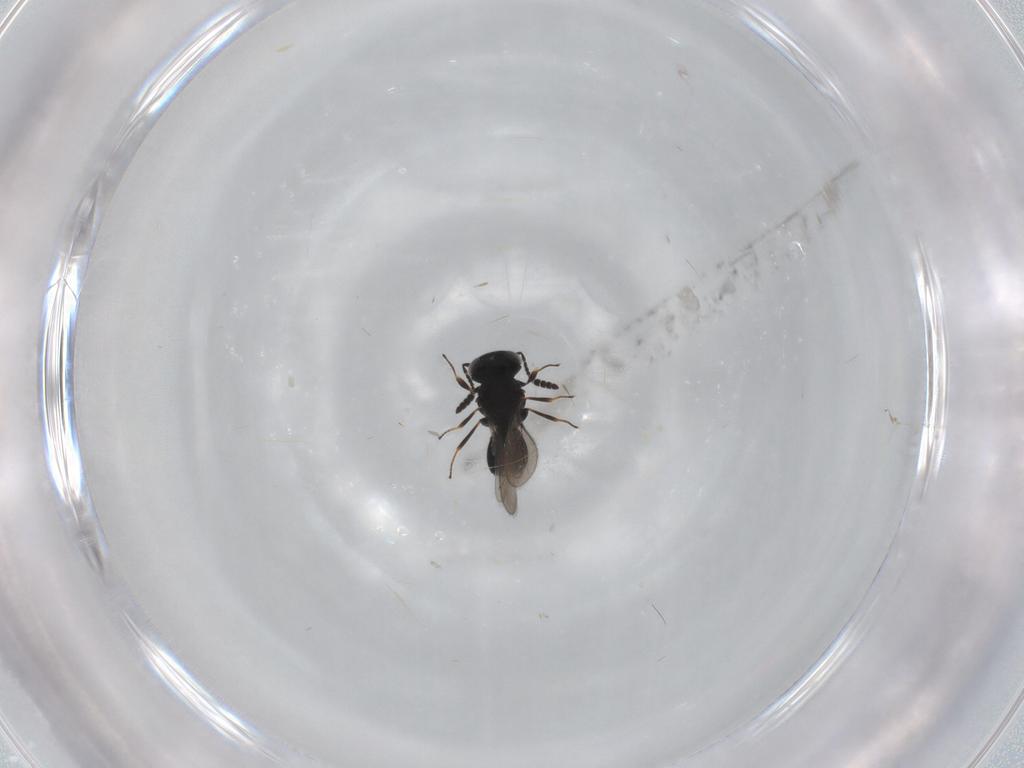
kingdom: Animalia
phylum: Arthropoda
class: Insecta
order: Hymenoptera
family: Scelionidae
